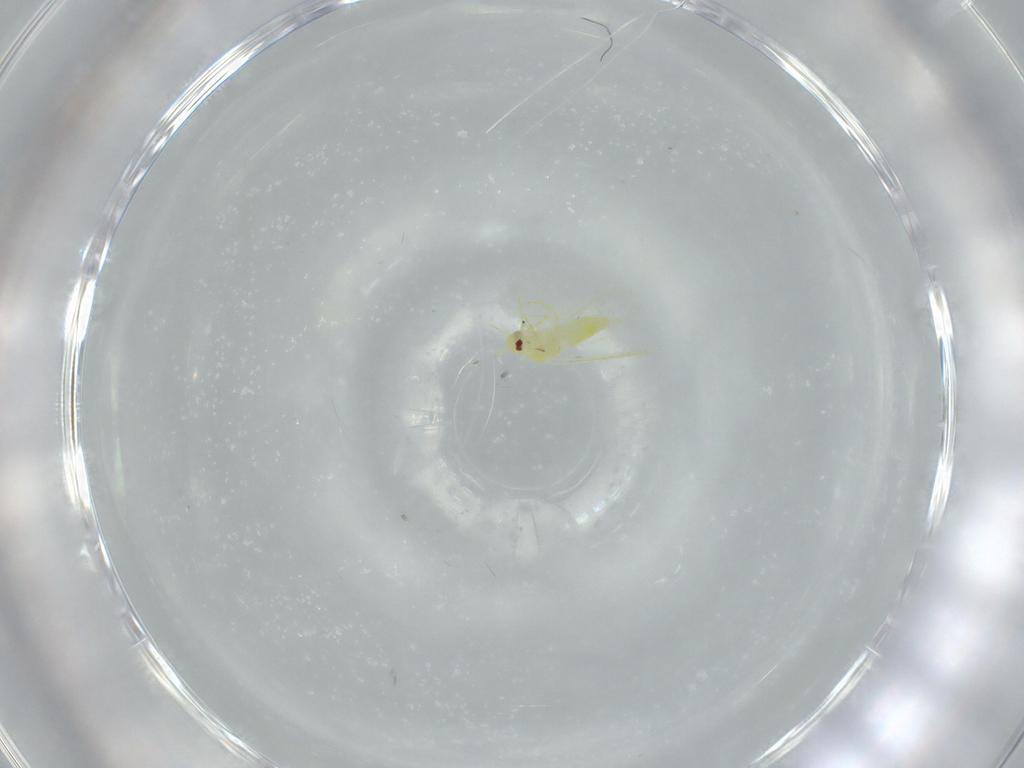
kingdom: Animalia
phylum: Arthropoda
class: Insecta
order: Hemiptera
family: Aleyrodidae
